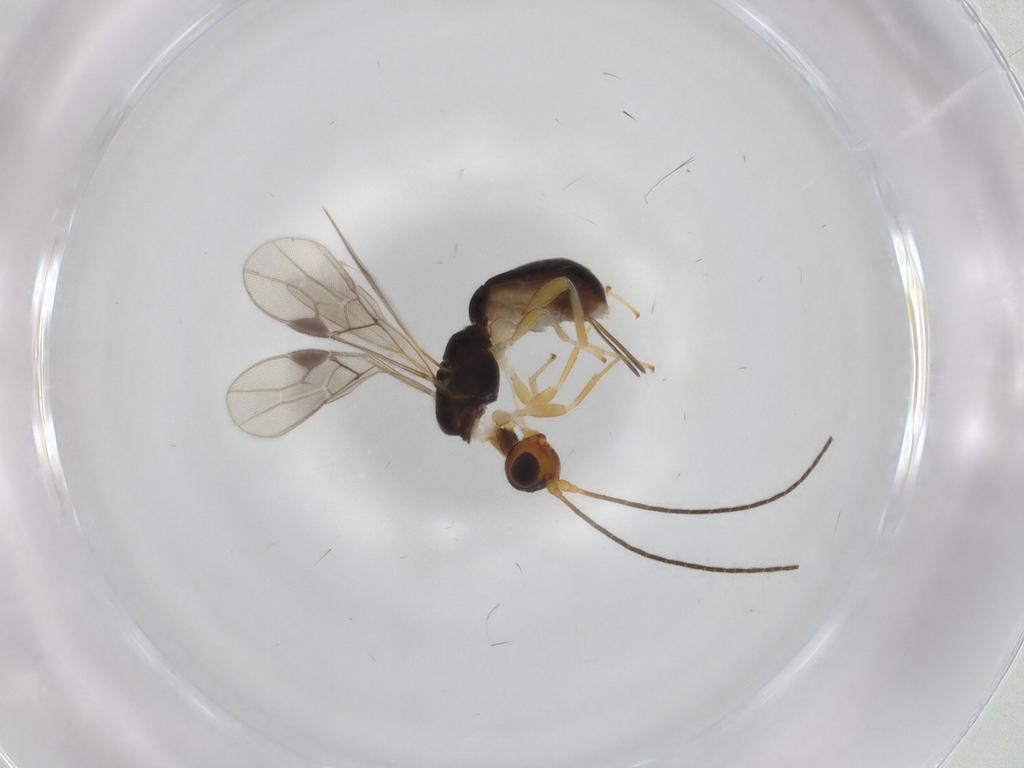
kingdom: Animalia
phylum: Arthropoda
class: Insecta
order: Hymenoptera
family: Braconidae
